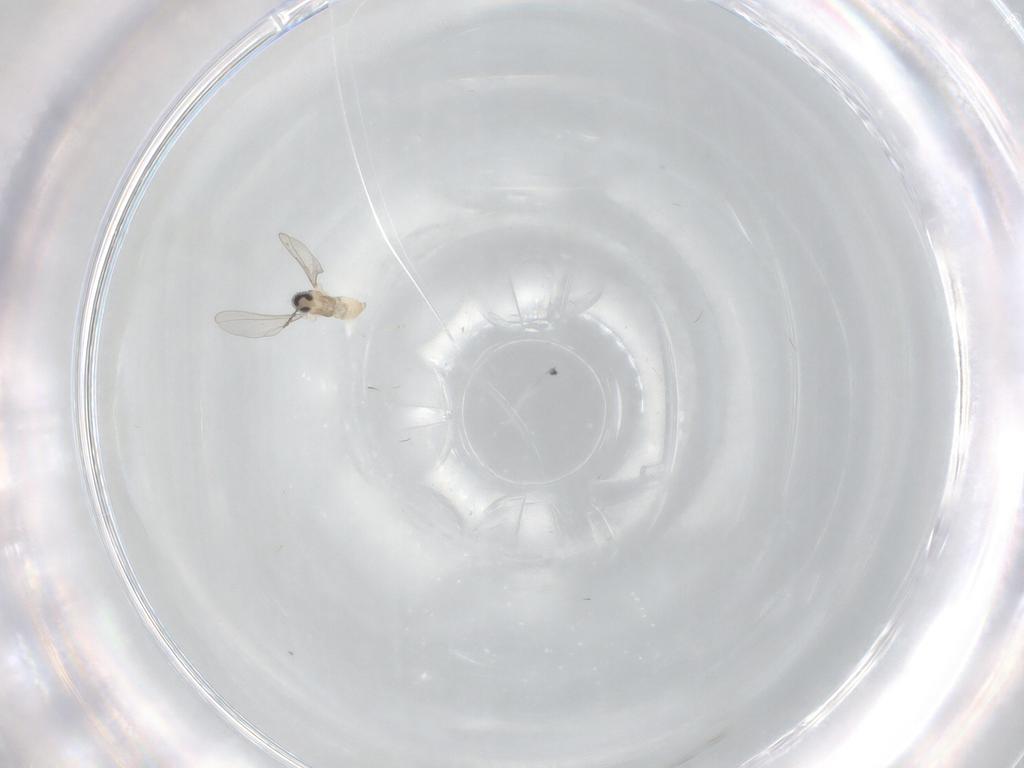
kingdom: Animalia
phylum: Arthropoda
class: Insecta
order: Diptera
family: Cecidomyiidae
